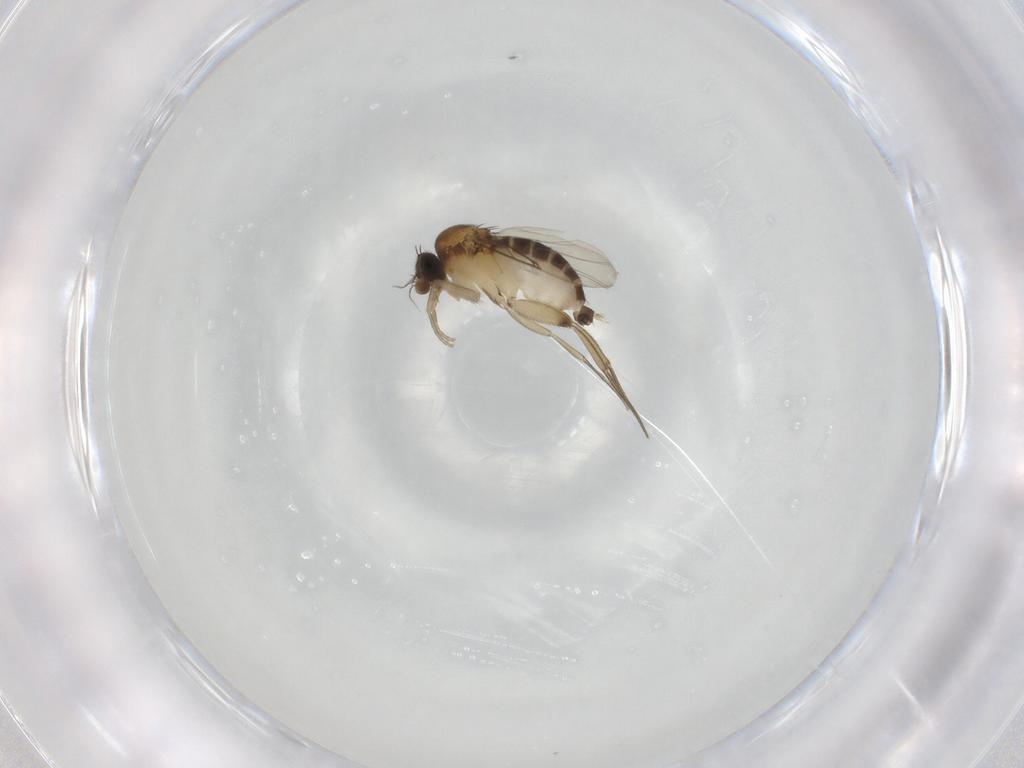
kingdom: Animalia
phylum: Arthropoda
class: Insecta
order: Diptera
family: Phoridae
